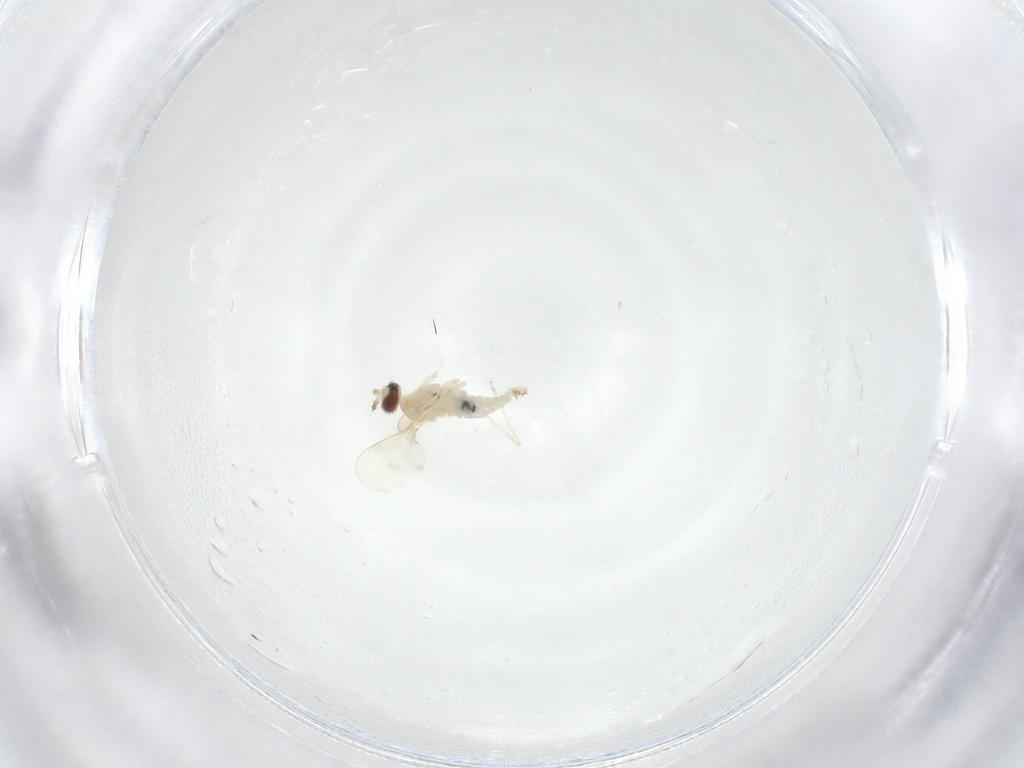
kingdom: Animalia
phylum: Arthropoda
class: Insecta
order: Diptera
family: Cecidomyiidae
